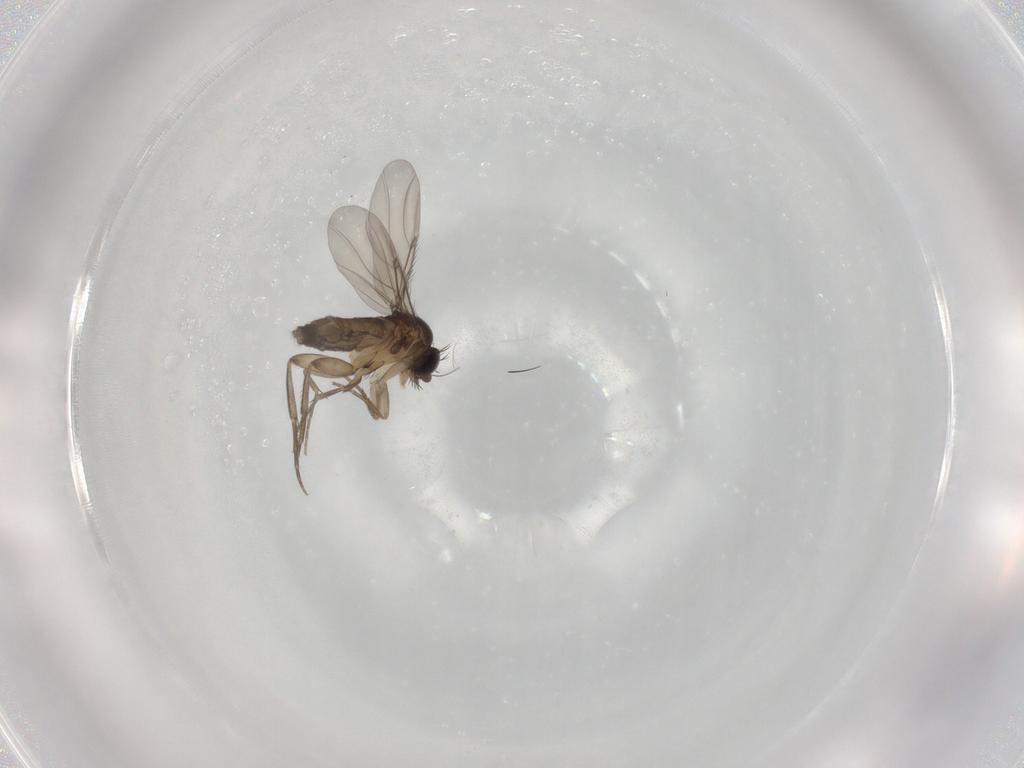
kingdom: Animalia
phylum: Arthropoda
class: Insecta
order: Diptera
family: Phoridae
